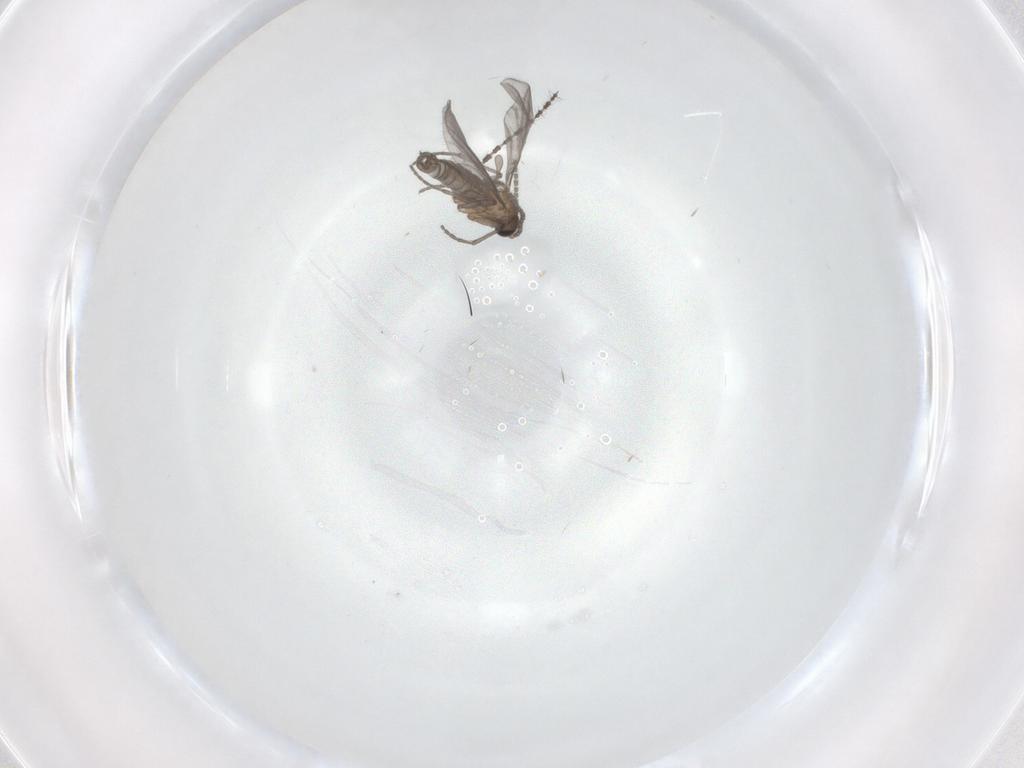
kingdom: Animalia
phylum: Arthropoda
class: Insecta
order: Diptera
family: Sciaridae
